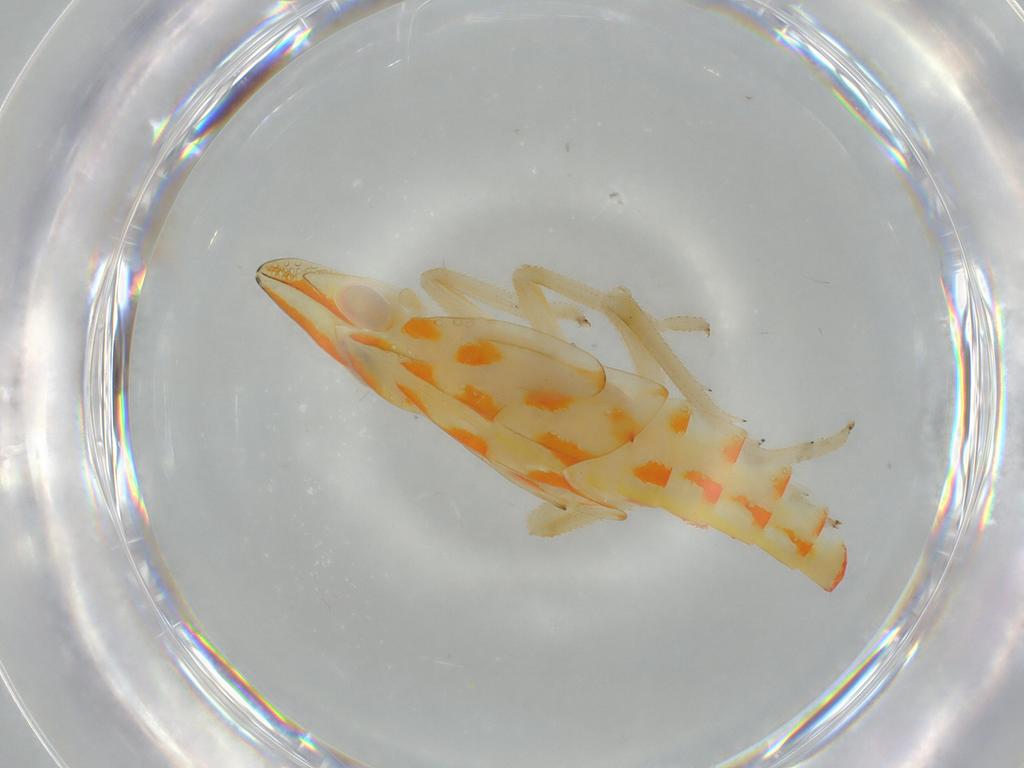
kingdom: Animalia
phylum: Arthropoda
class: Insecta
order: Hemiptera
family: Tropiduchidae
